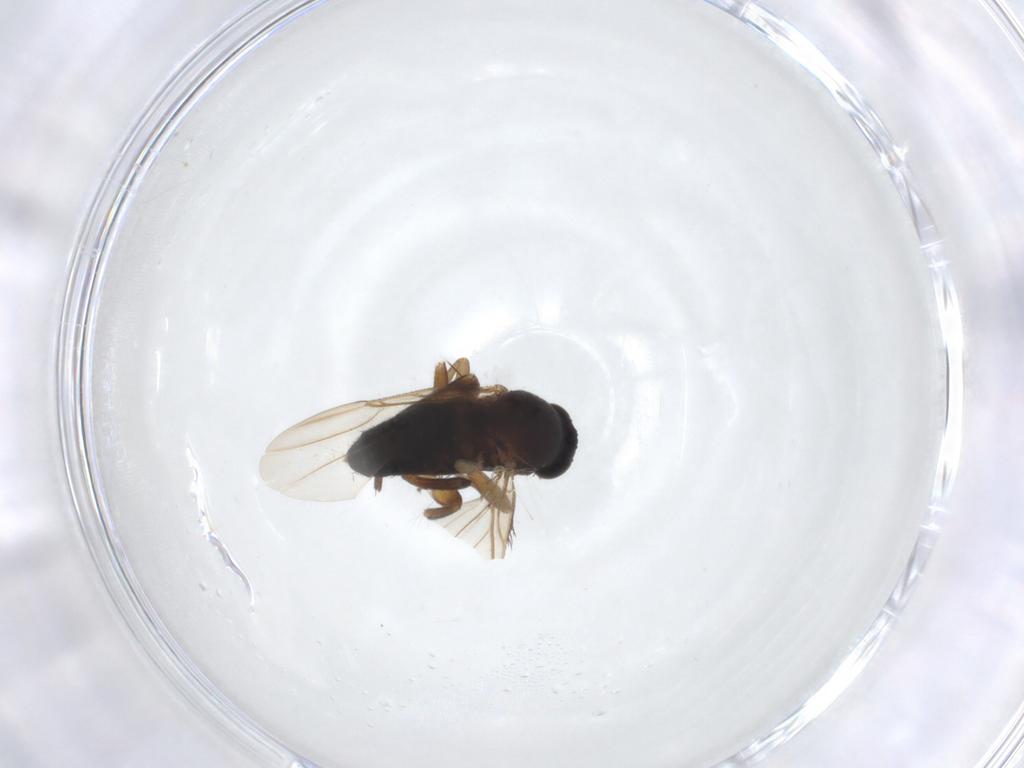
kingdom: Animalia
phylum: Arthropoda
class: Insecta
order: Diptera
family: Phoridae
